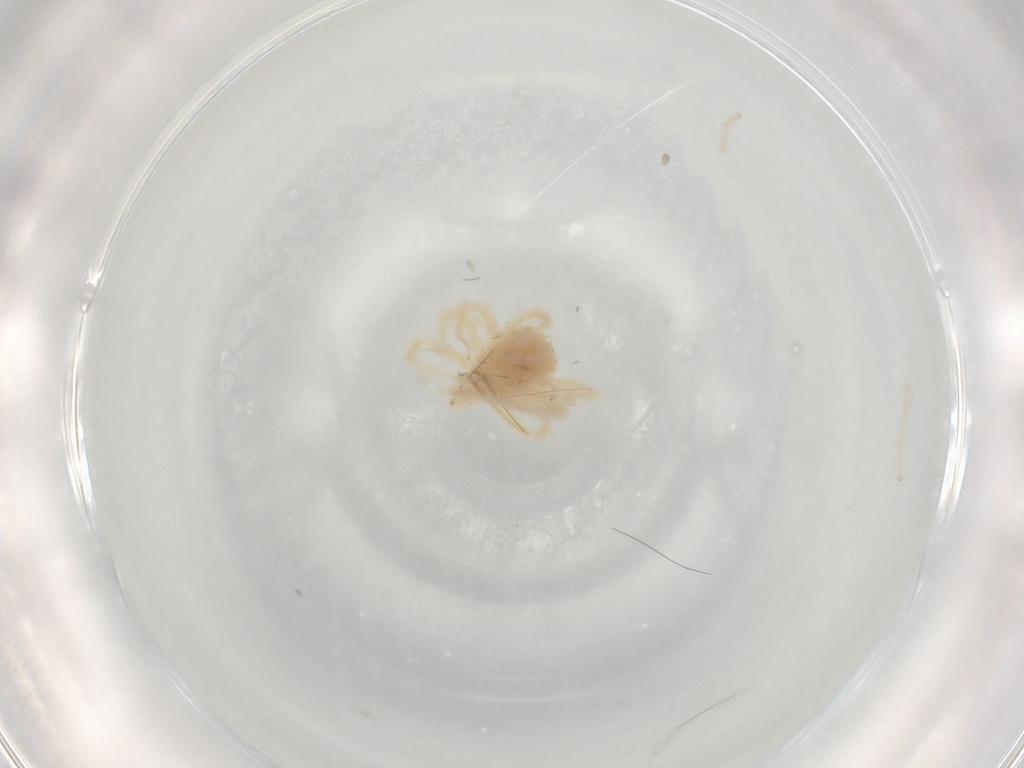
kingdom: Animalia
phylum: Arthropoda
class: Arachnida
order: Trombidiformes
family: Anystidae
